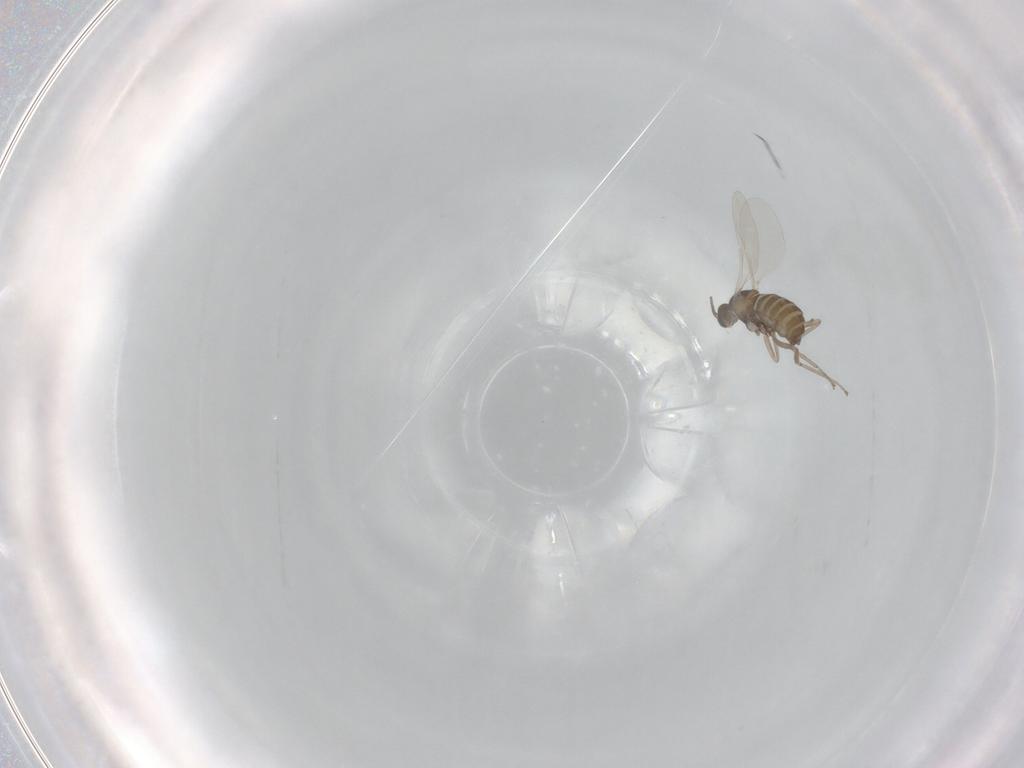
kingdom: Animalia
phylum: Arthropoda
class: Insecta
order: Diptera
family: Cecidomyiidae
